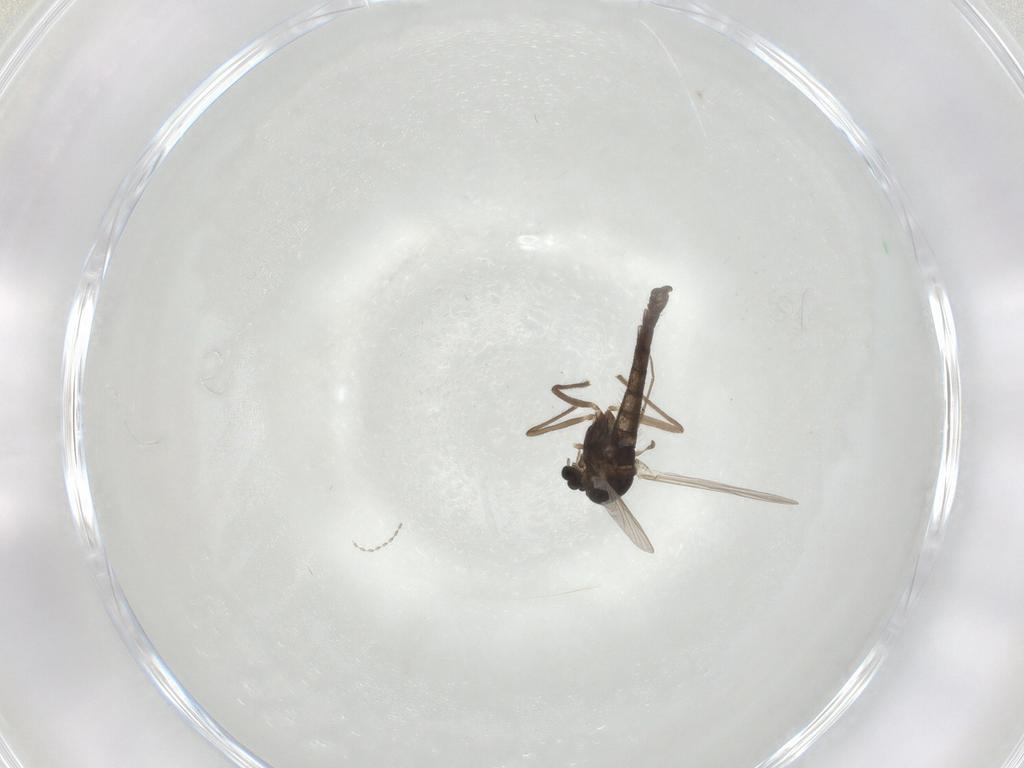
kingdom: Animalia
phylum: Arthropoda
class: Insecta
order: Diptera
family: Chironomidae
